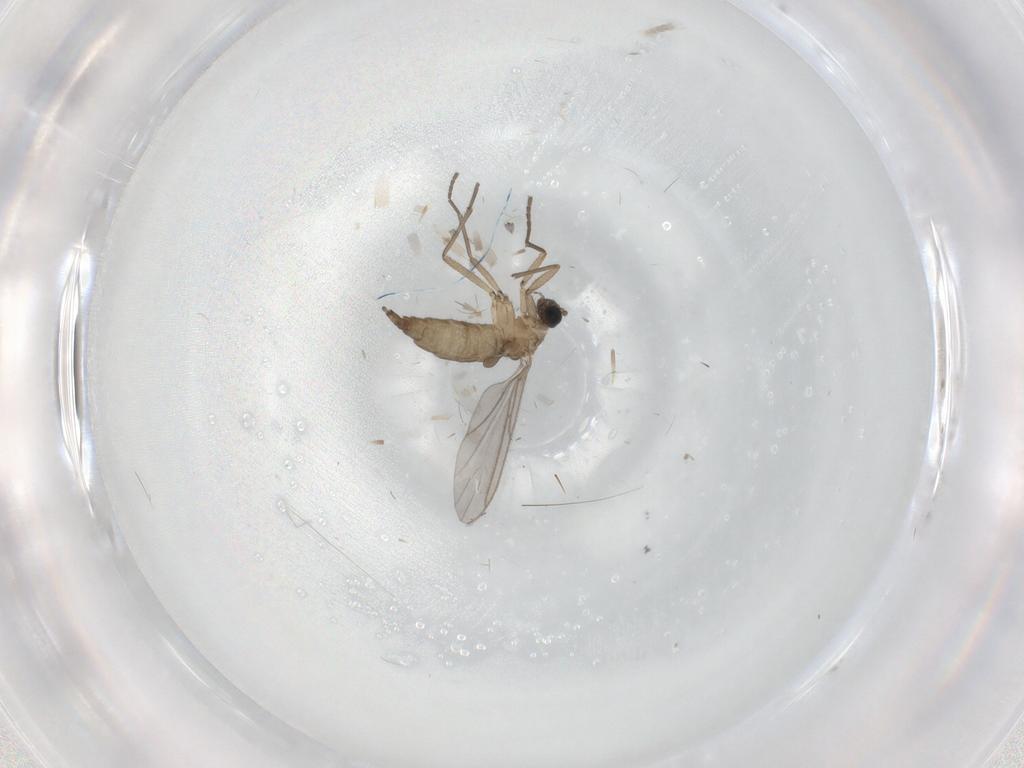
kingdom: Animalia
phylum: Arthropoda
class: Insecta
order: Diptera
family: Sciaridae
